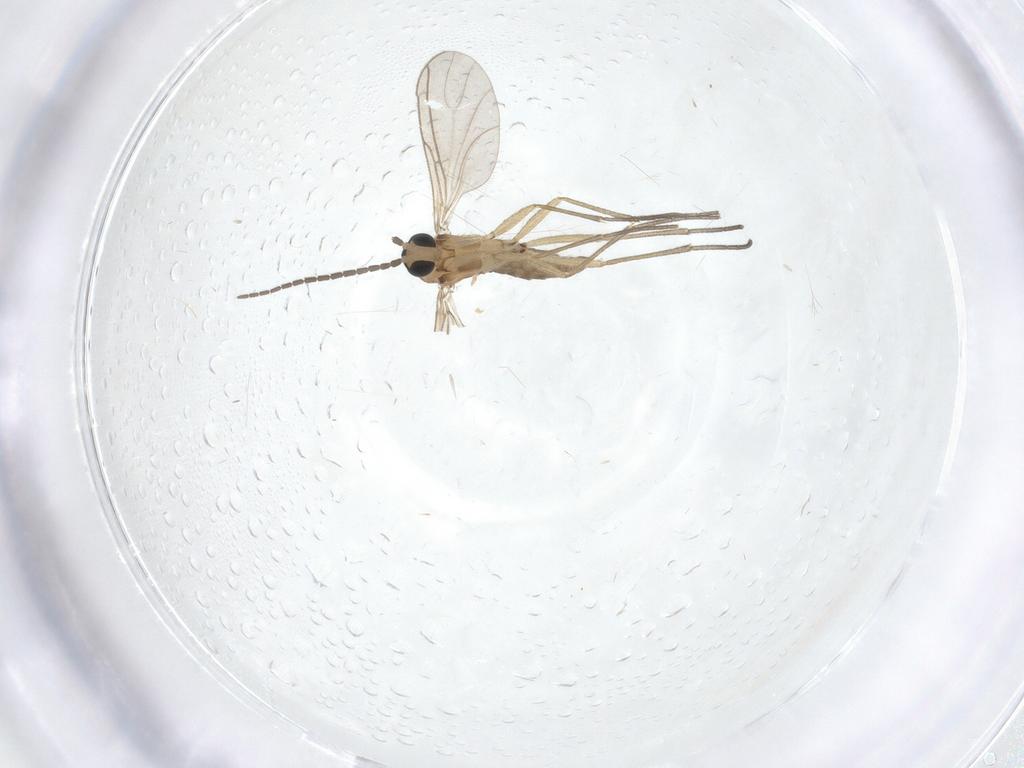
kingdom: Animalia
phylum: Arthropoda
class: Insecta
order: Diptera
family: Sciaridae
